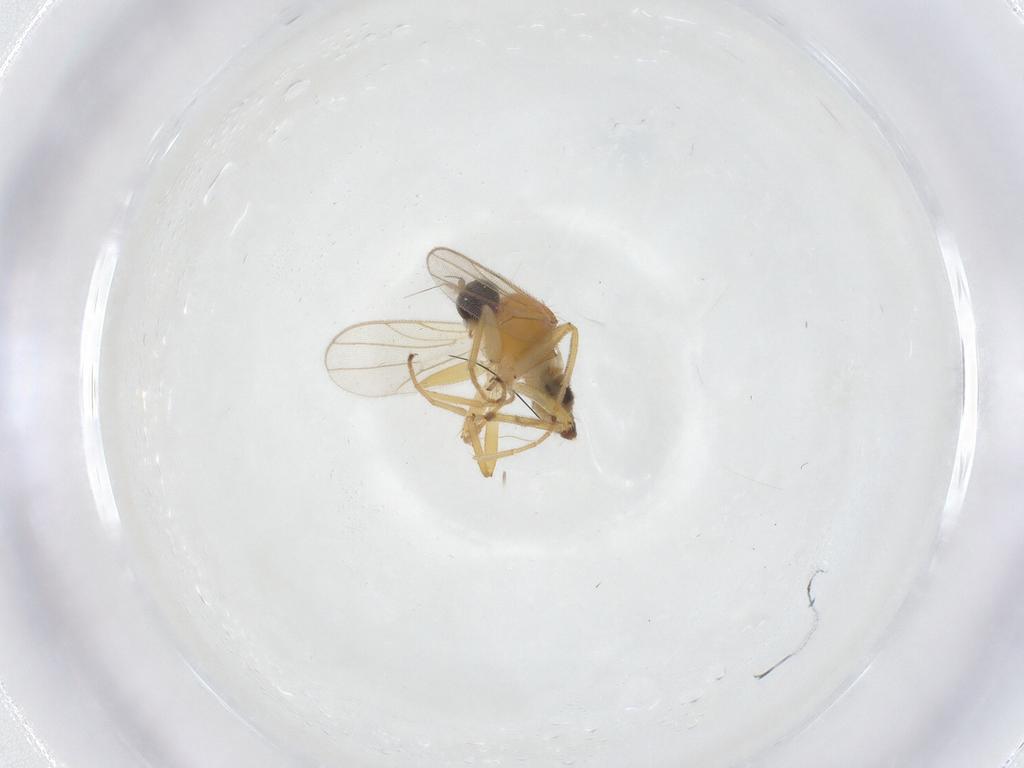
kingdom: Animalia
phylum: Arthropoda
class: Insecta
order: Diptera
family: Hybotidae
